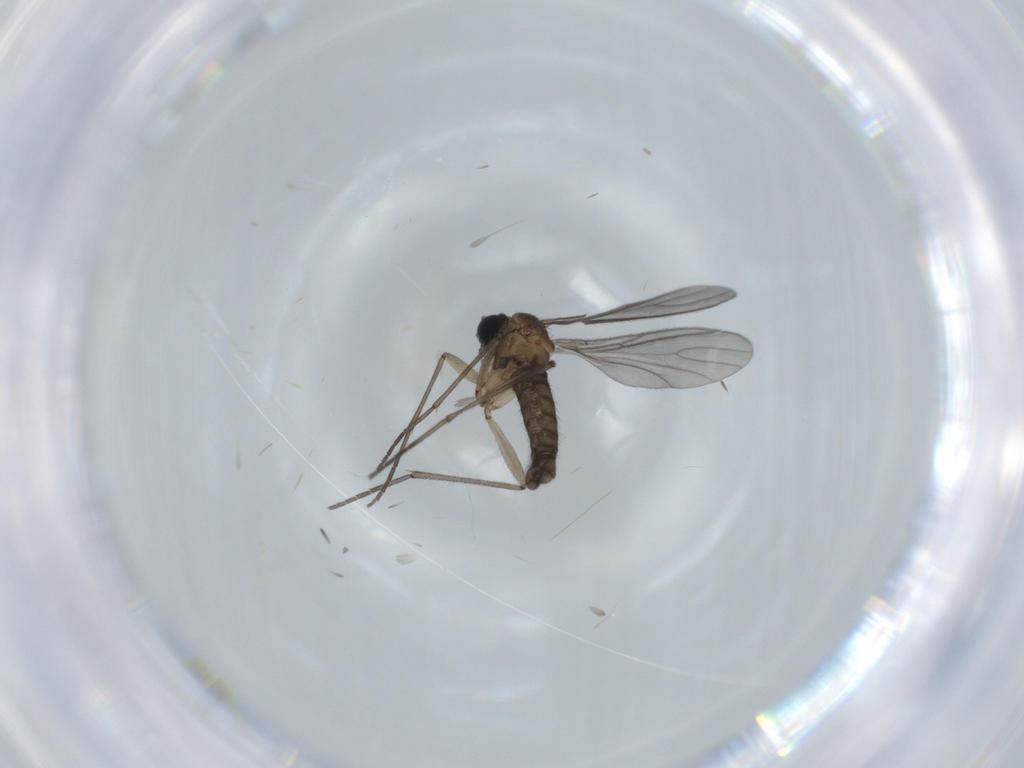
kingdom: Animalia
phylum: Arthropoda
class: Insecta
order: Diptera
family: Sciaridae
